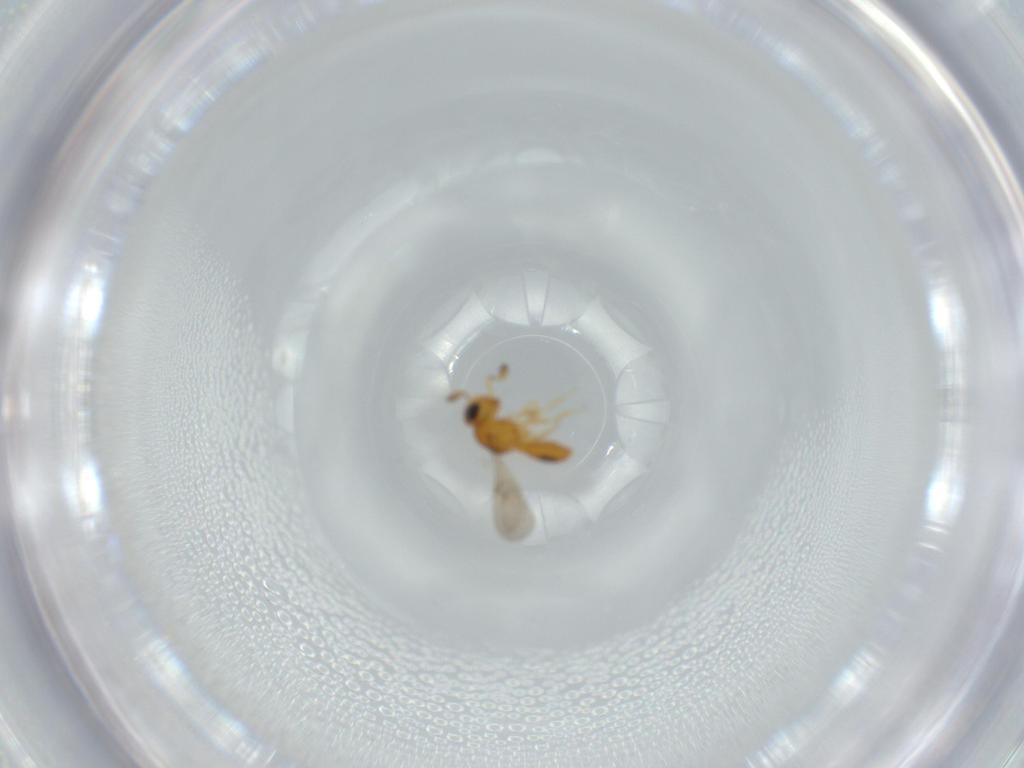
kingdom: Animalia
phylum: Arthropoda
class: Insecta
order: Hymenoptera
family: Scelionidae
